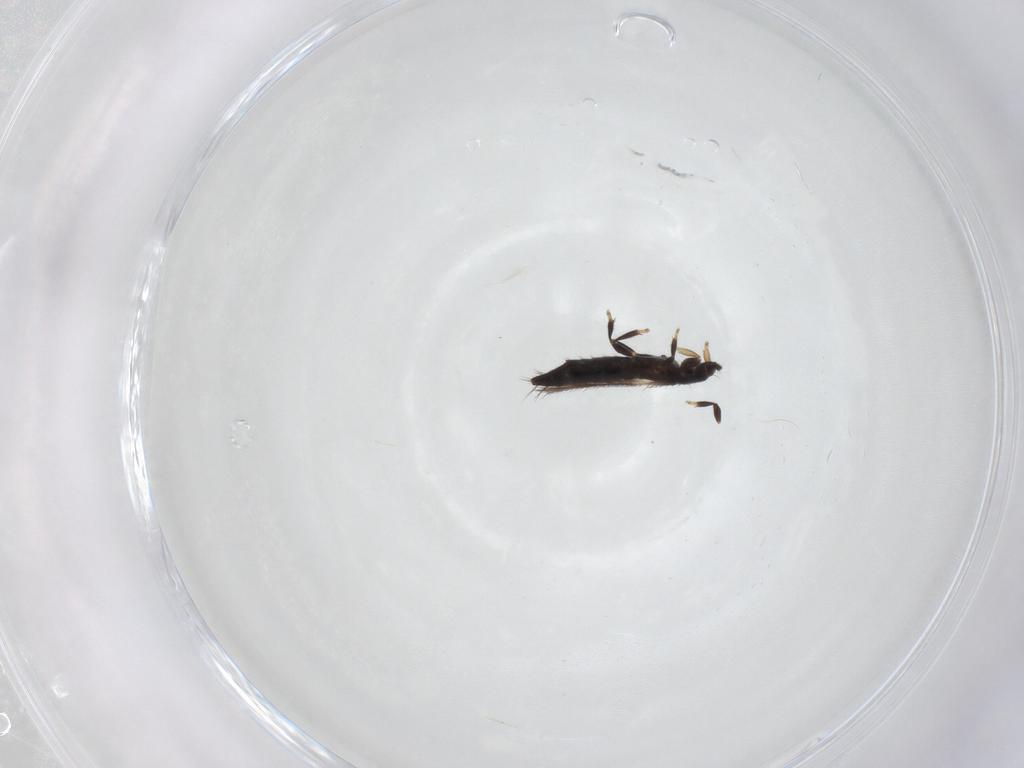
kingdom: Animalia
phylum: Arthropoda
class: Insecta
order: Thysanoptera
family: Thripidae
